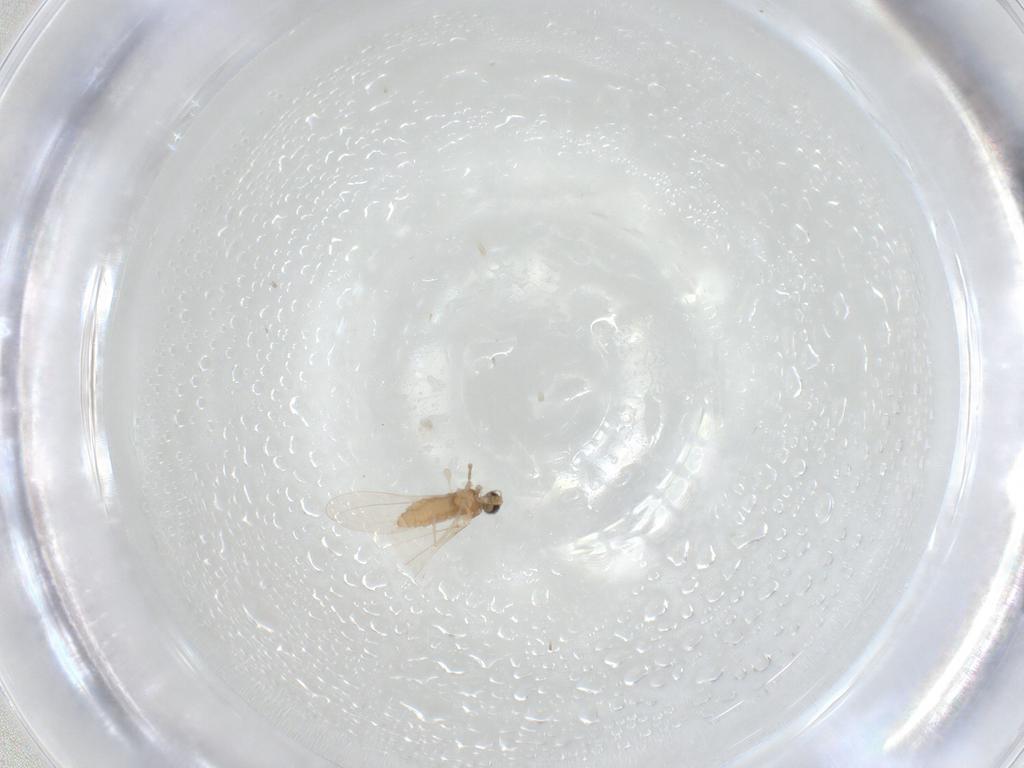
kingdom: Animalia
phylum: Arthropoda
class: Insecta
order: Diptera
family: Cecidomyiidae
